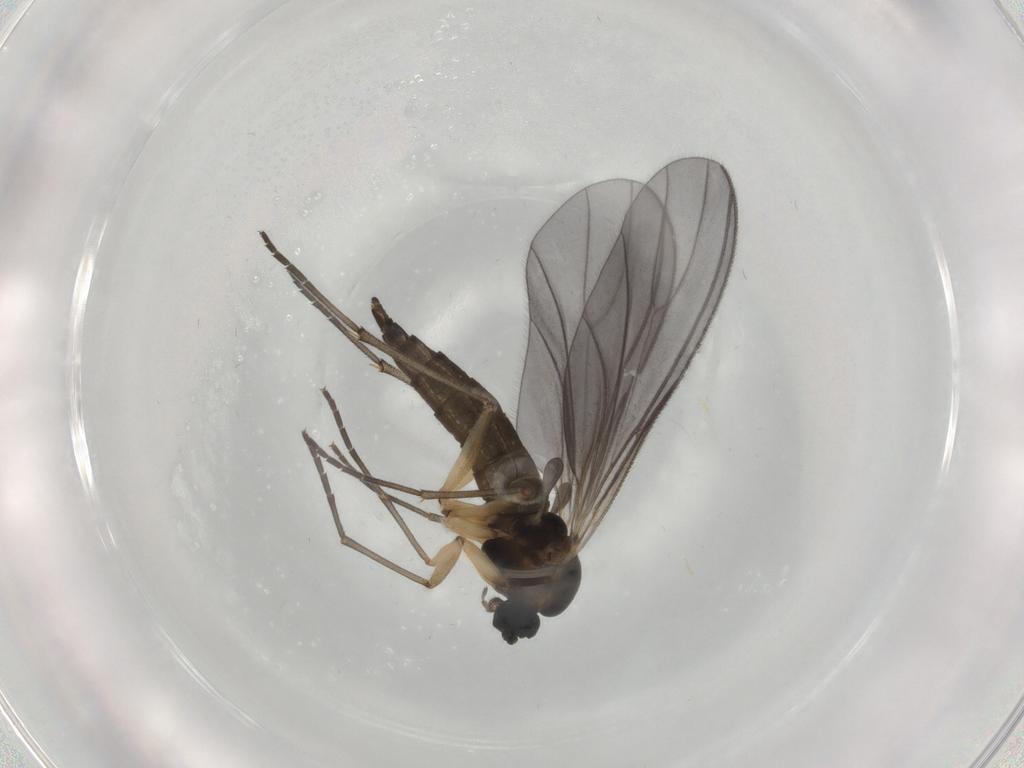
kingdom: Animalia
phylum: Arthropoda
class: Insecta
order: Diptera
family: Sciaridae
